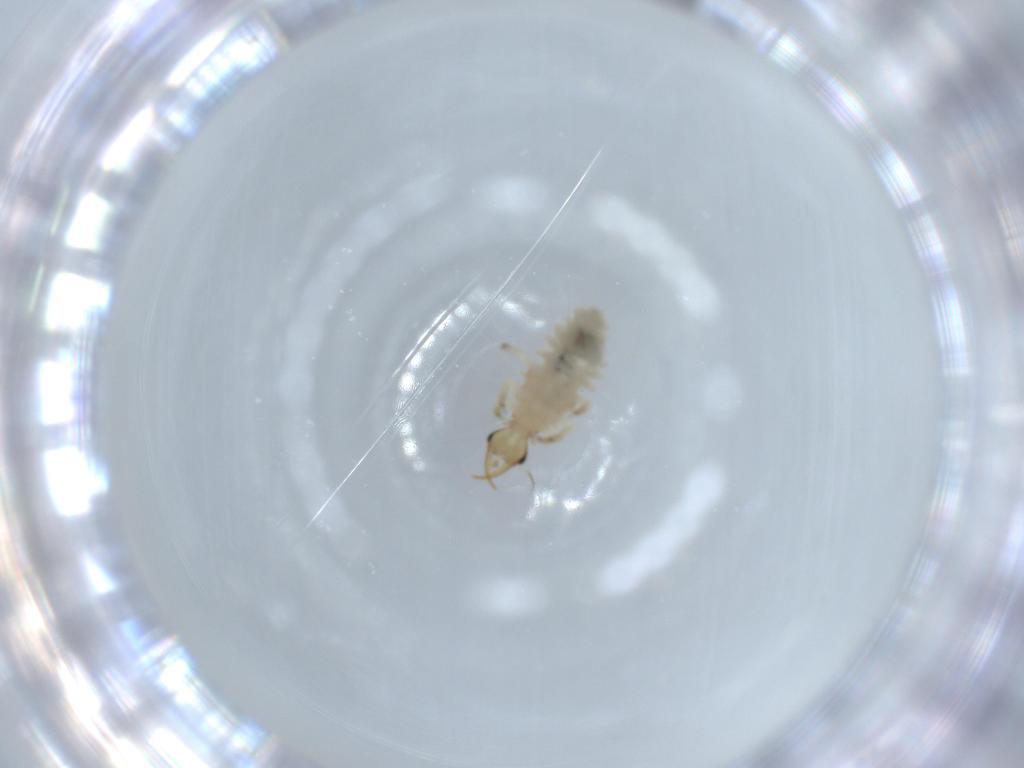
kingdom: Animalia
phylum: Arthropoda
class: Insecta
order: Neuroptera
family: Chrysopidae
